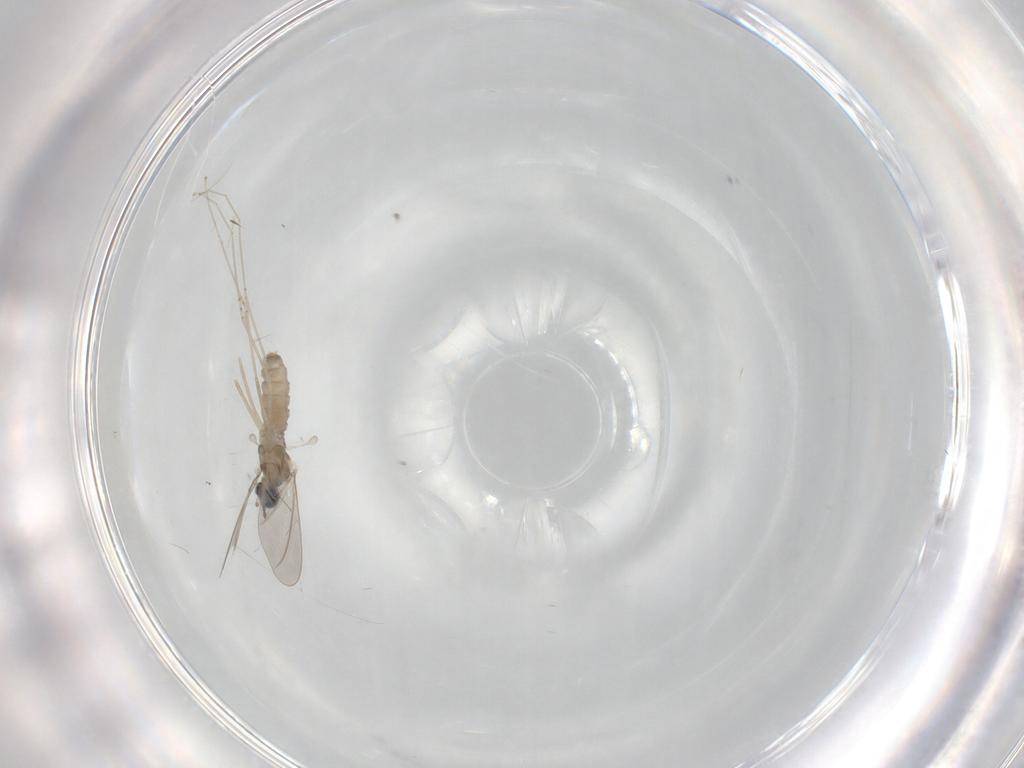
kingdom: Animalia
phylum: Arthropoda
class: Insecta
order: Diptera
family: Cecidomyiidae
